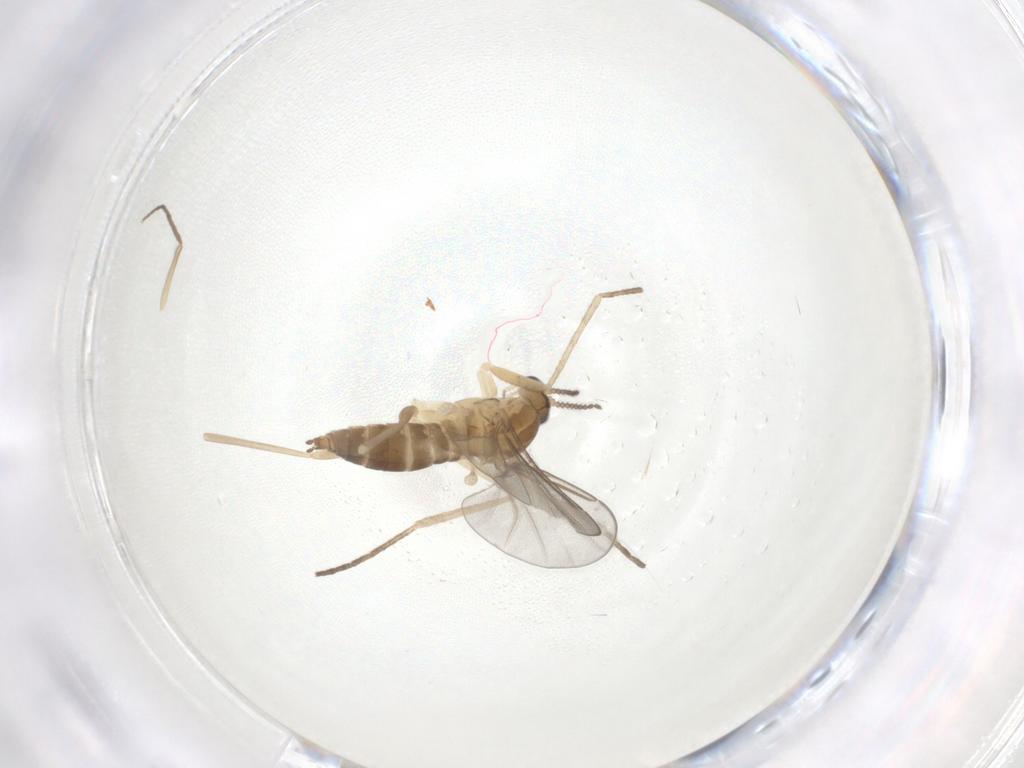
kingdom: Animalia
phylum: Arthropoda
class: Insecta
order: Diptera
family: Cecidomyiidae
